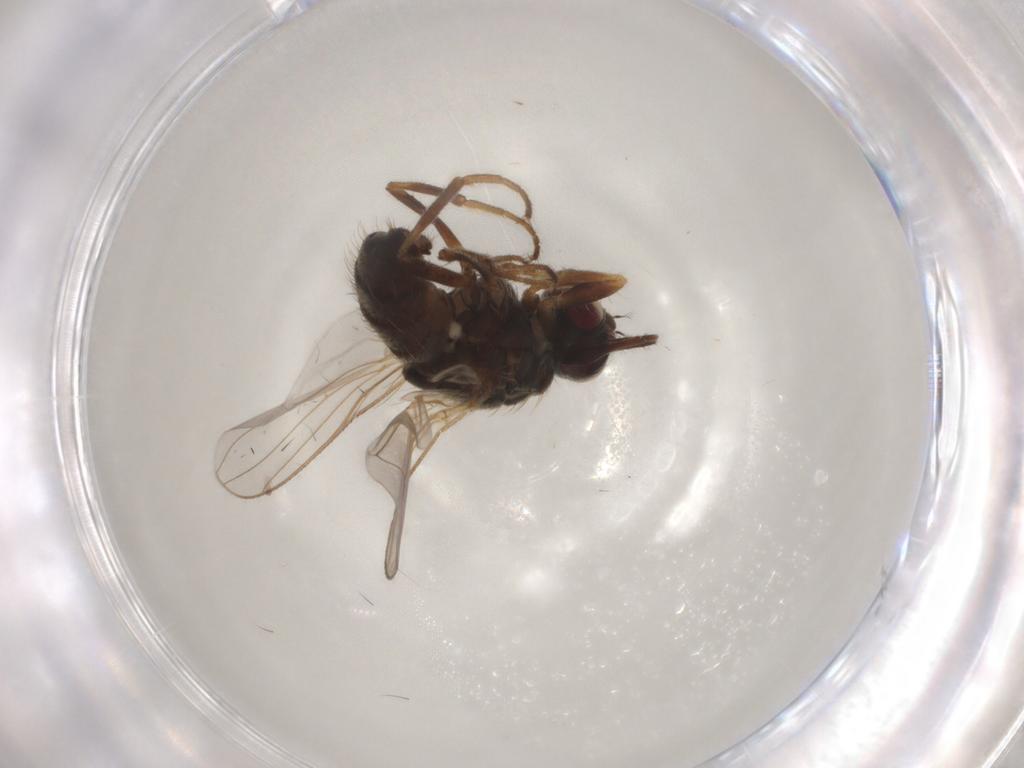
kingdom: Animalia
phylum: Arthropoda
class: Insecta
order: Diptera
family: Muscidae
